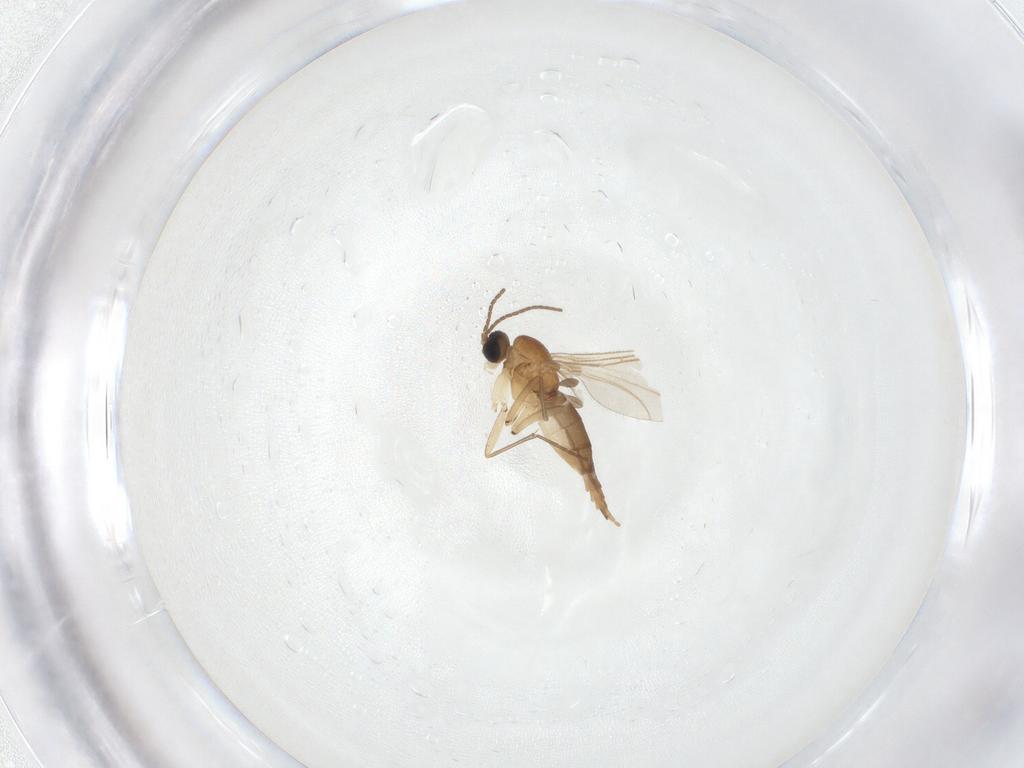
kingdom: Animalia
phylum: Arthropoda
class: Insecta
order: Diptera
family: Sciaridae
